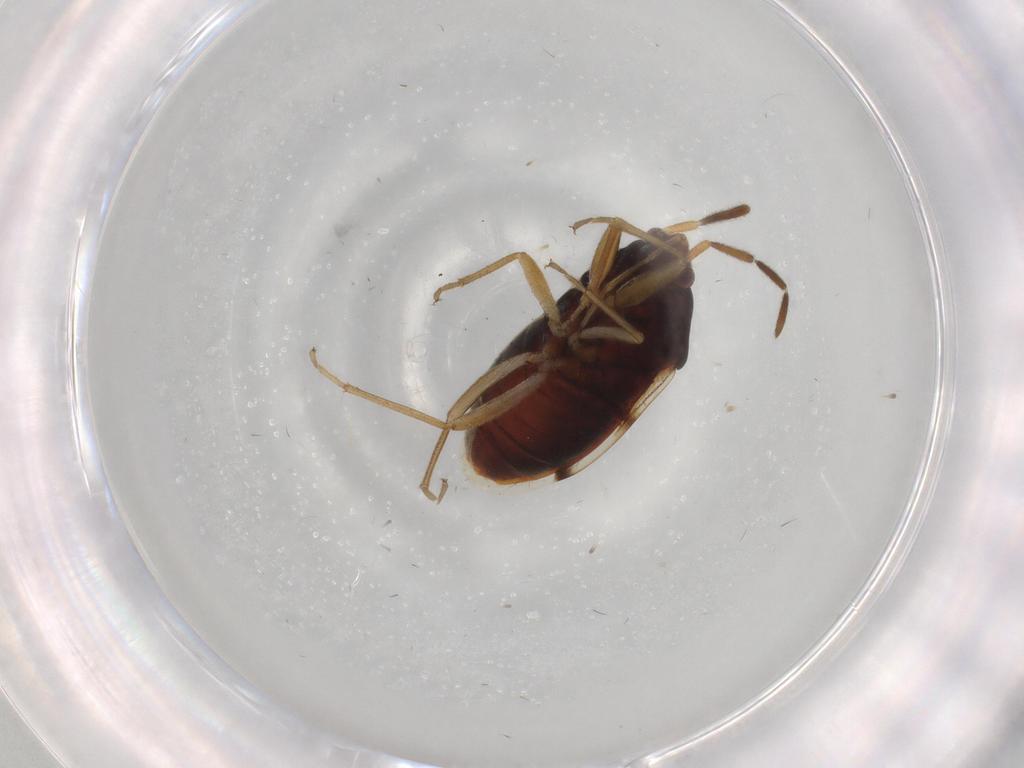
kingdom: Animalia
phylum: Arthropoda
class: Insecta
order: Hemiptera
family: Rhyparochromidae
